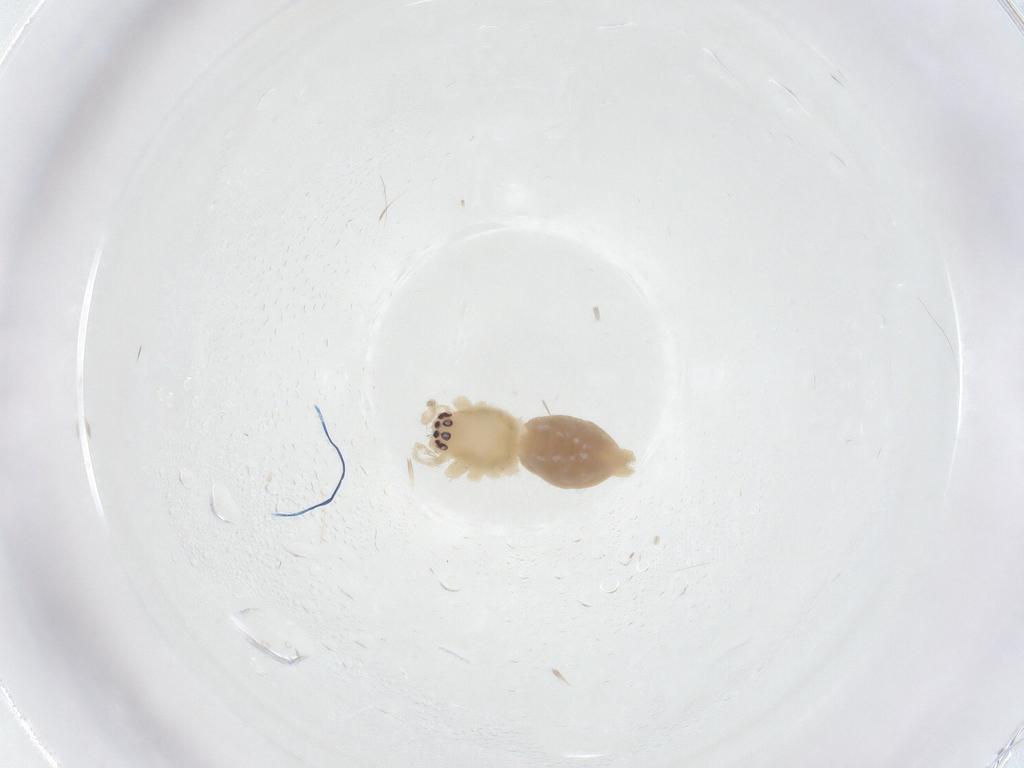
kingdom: Animalia
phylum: Arthropoda
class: Arachnida
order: Araneae
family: Cheiracanthiidae
